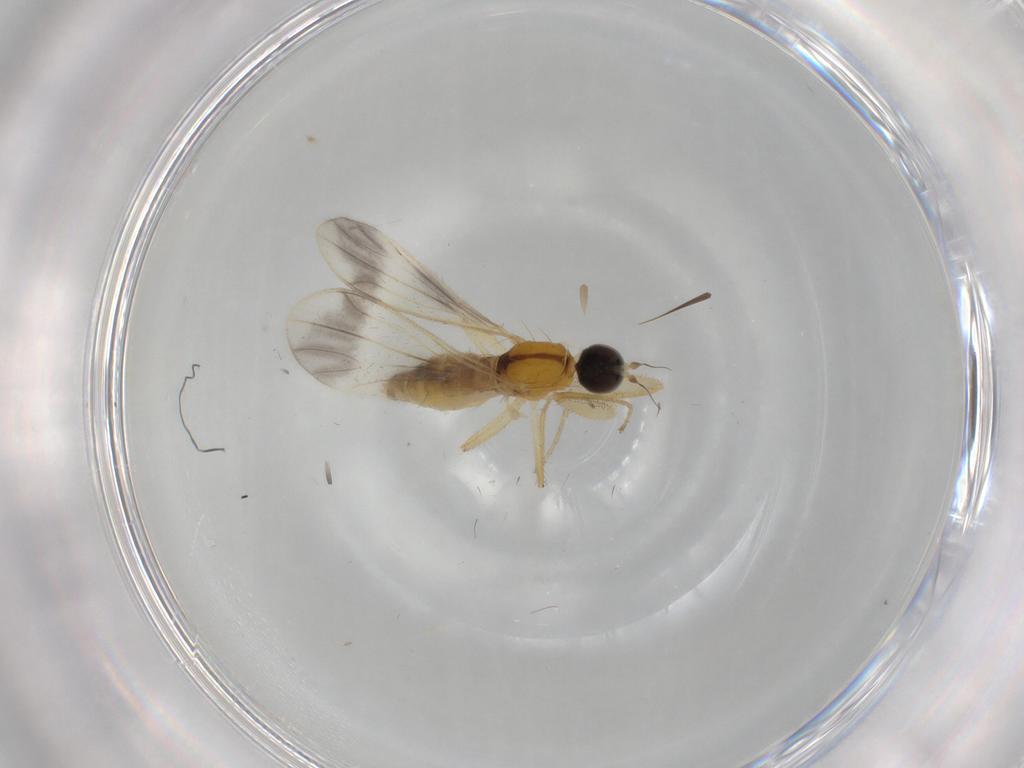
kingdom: Animalia
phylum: Arthropoda
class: Insecta
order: Diptera
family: Empididae
